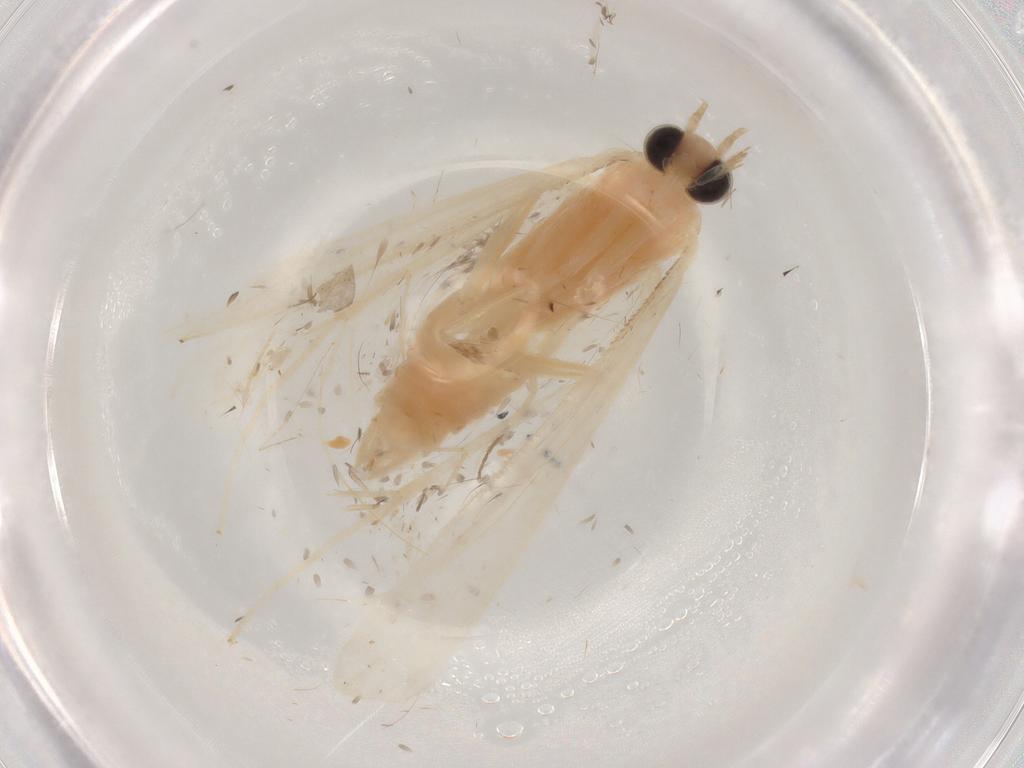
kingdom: Animalia
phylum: Arthropoda
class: Insecta
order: Lepidoptera
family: Crambidae
